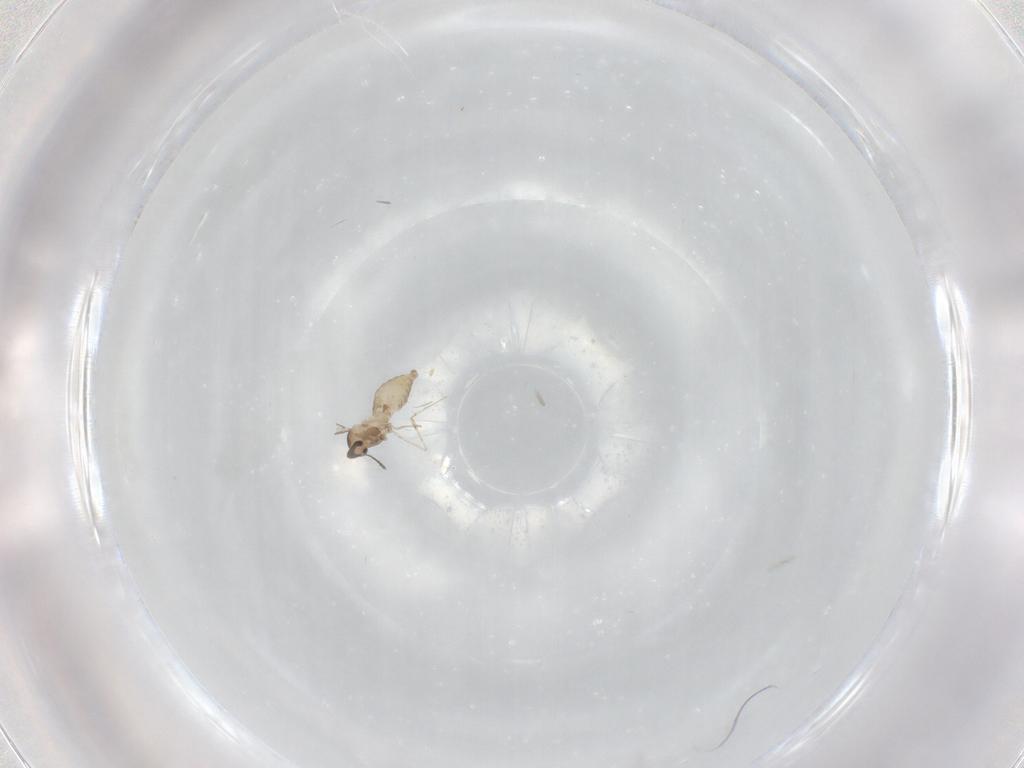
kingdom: Animalia
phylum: Arthropoda
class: Insecta
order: Diptera
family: Cecidomyiidae
